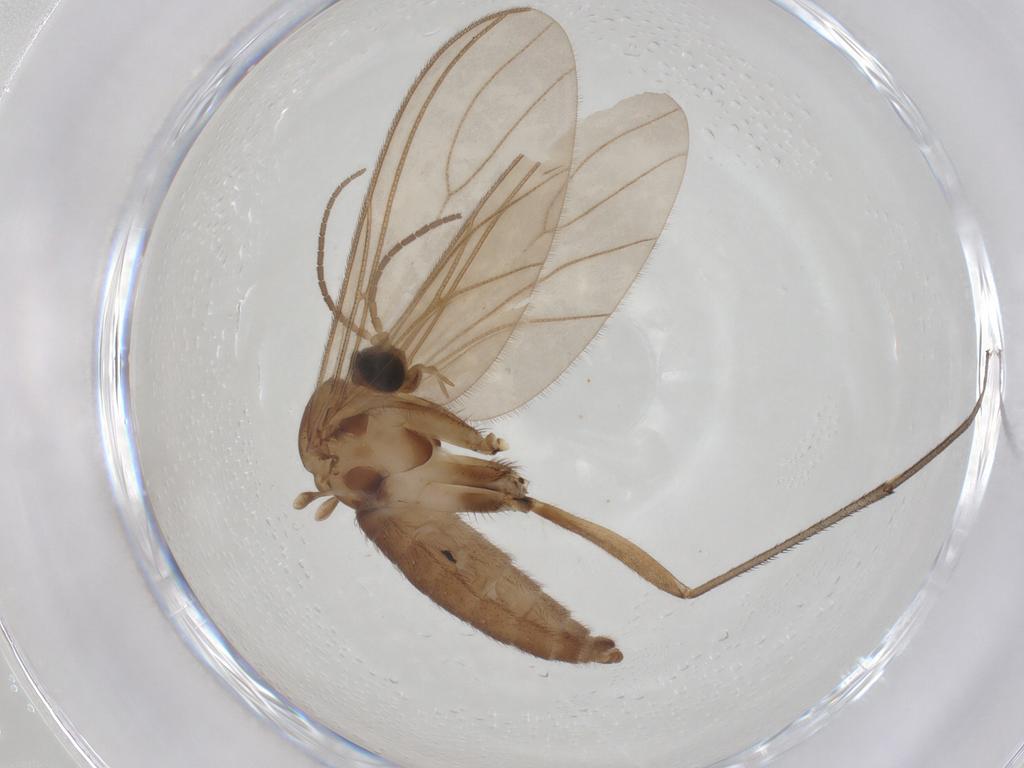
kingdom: Animalia
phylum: Arthropoda
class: Insecta
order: Diptera
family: Sciaridae
